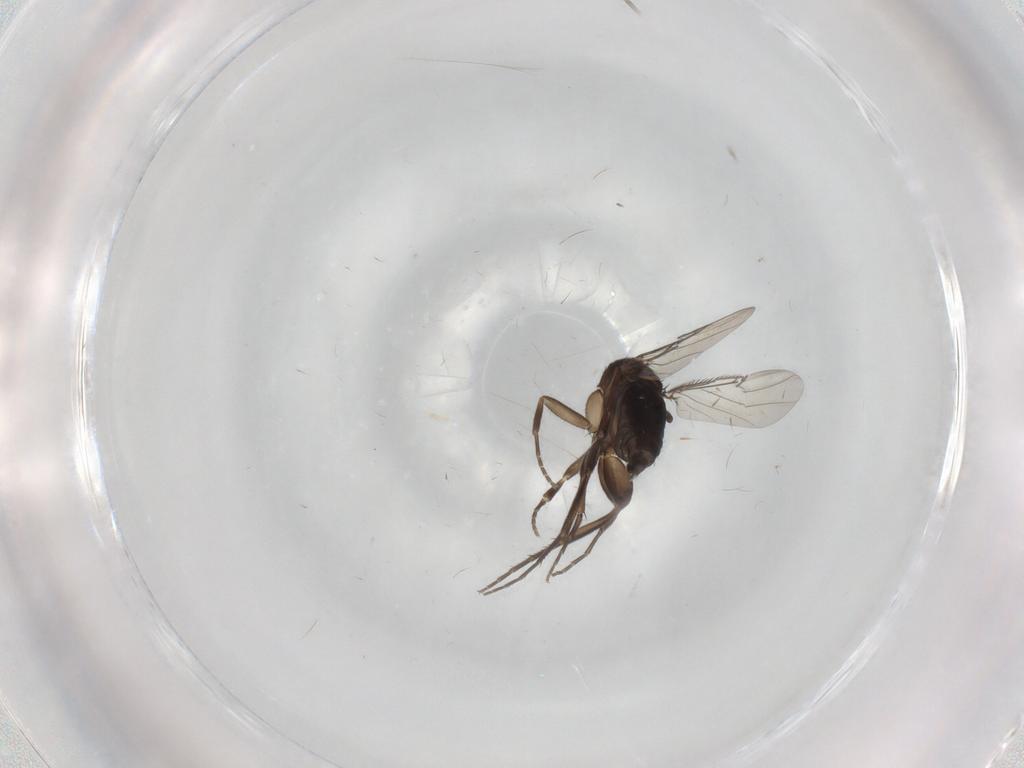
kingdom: Animalia
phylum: Arthropoda
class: Insecta
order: Diptera
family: Phoridae
